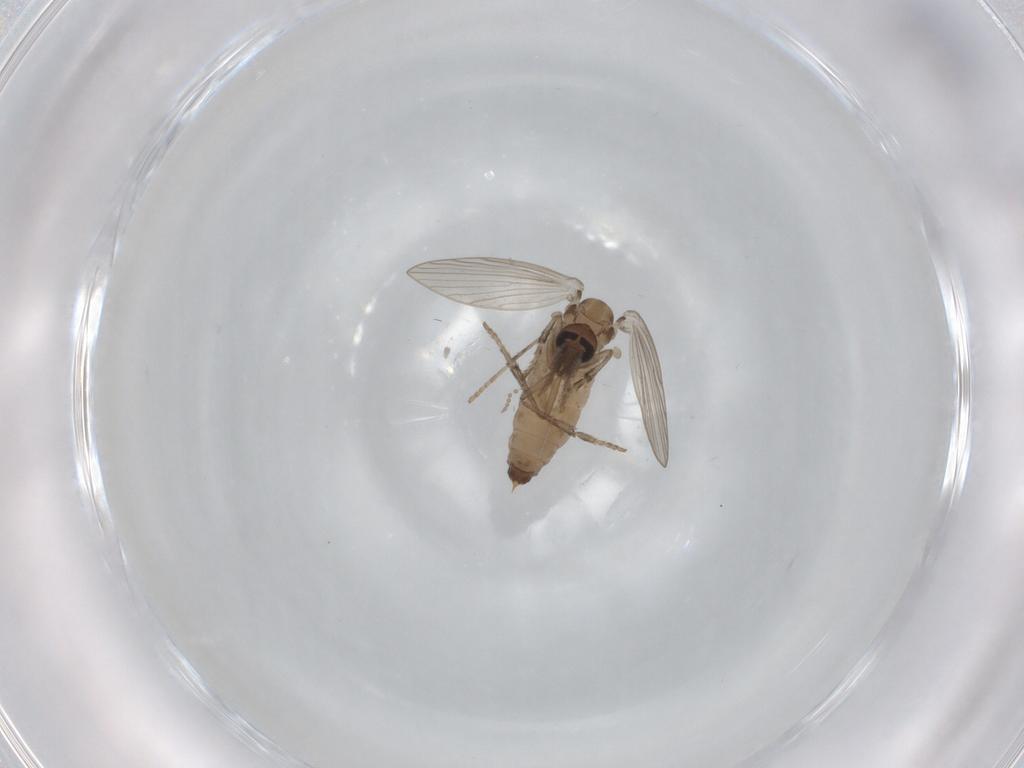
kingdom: Animalia
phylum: Arthropoda
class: Insecta
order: Diptera
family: Psychodidae
